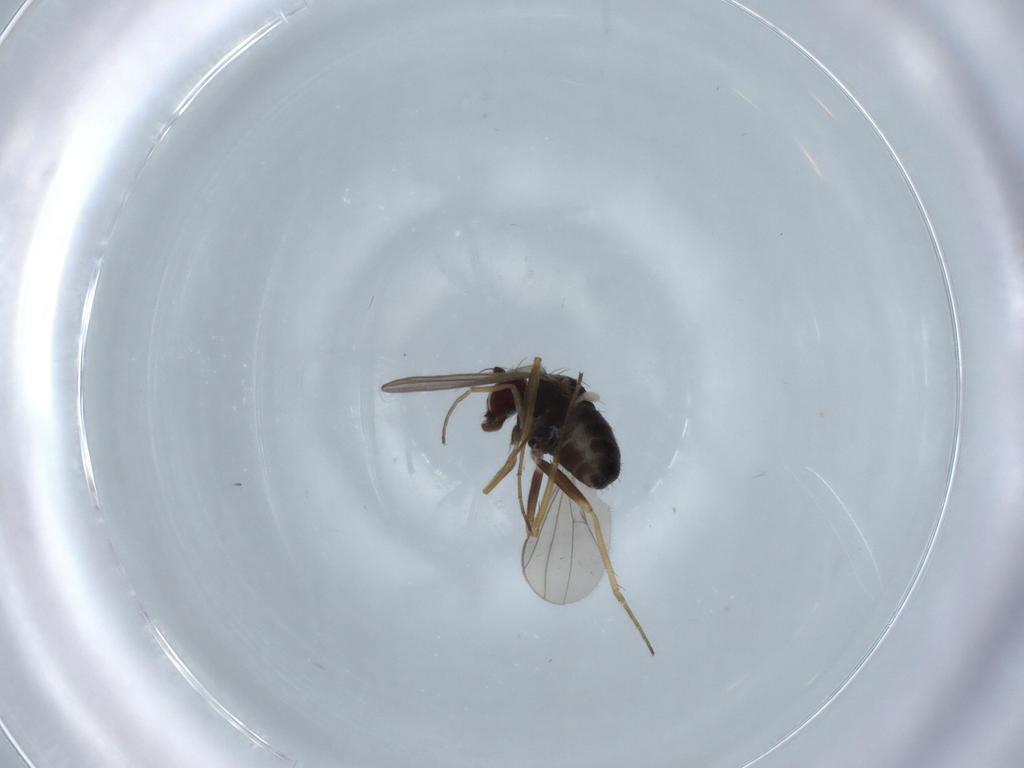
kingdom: Animalia
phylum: Arthropoda
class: Insecta
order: Diptera
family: Dolichopodidae
